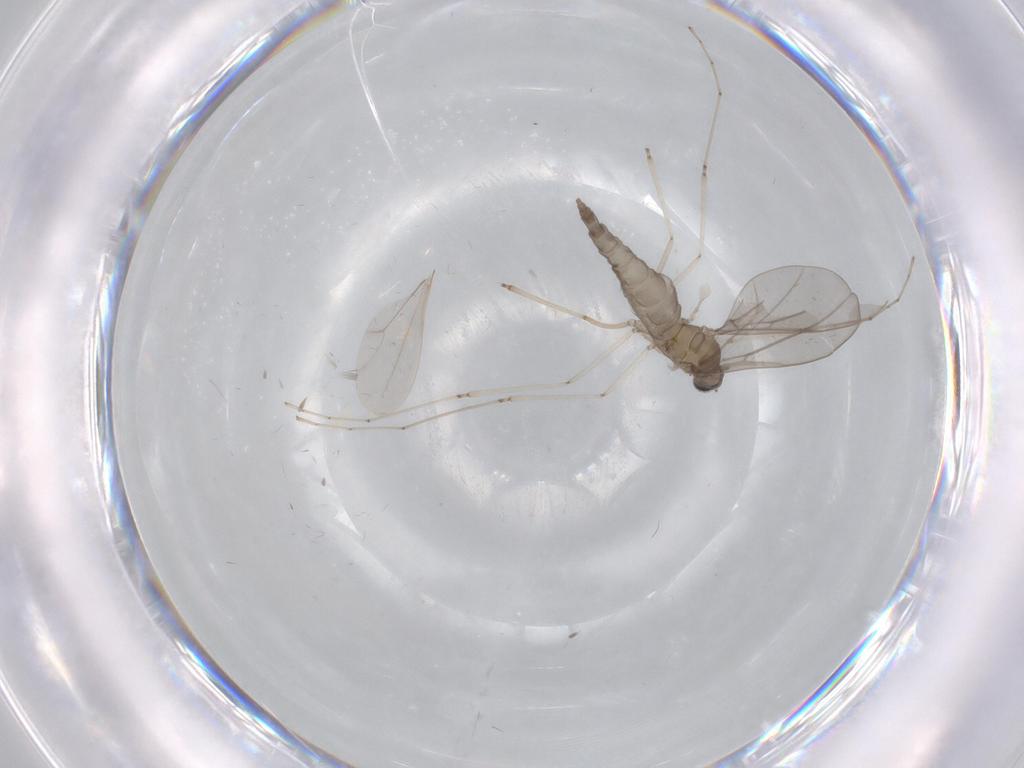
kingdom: Animalia
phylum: Arthropoda
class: Insecta
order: Diptera
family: Cecidomyiidae
